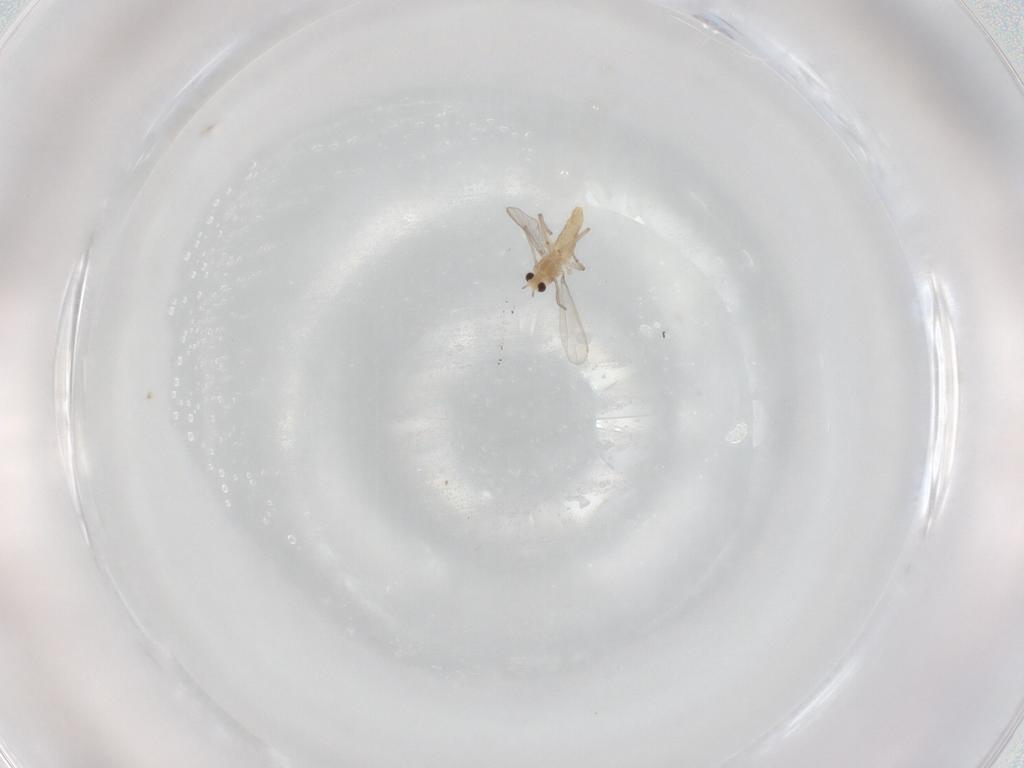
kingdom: Animalia
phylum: Arthropoda
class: Insecta
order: Diptera
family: Chironomidae
